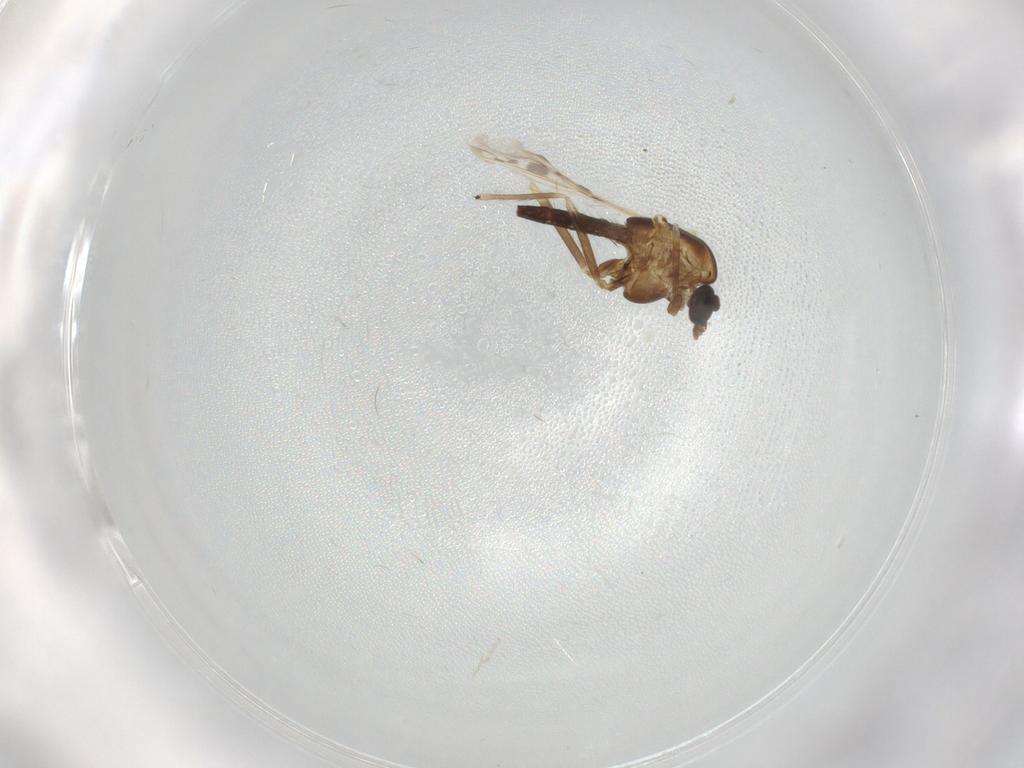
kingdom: Animalia
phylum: Arthropoda
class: Insecta
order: Diptera
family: Chironomidae
